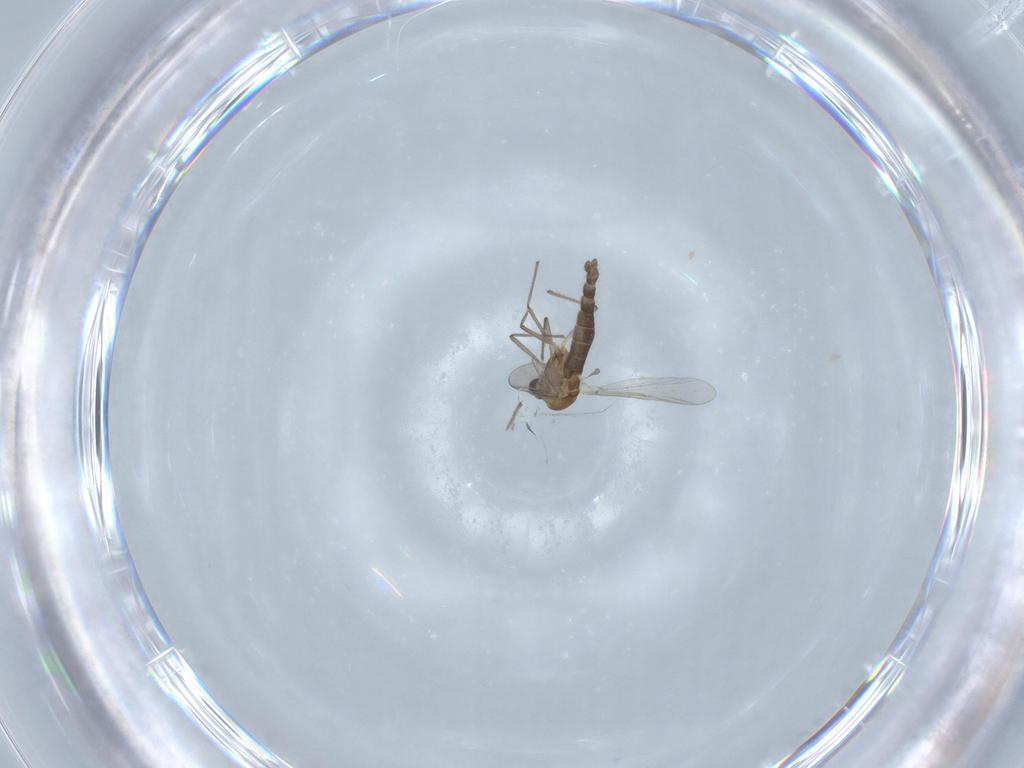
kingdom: Animalia
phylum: Arthropoda
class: Insecta
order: Diptera
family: Chironomidae
